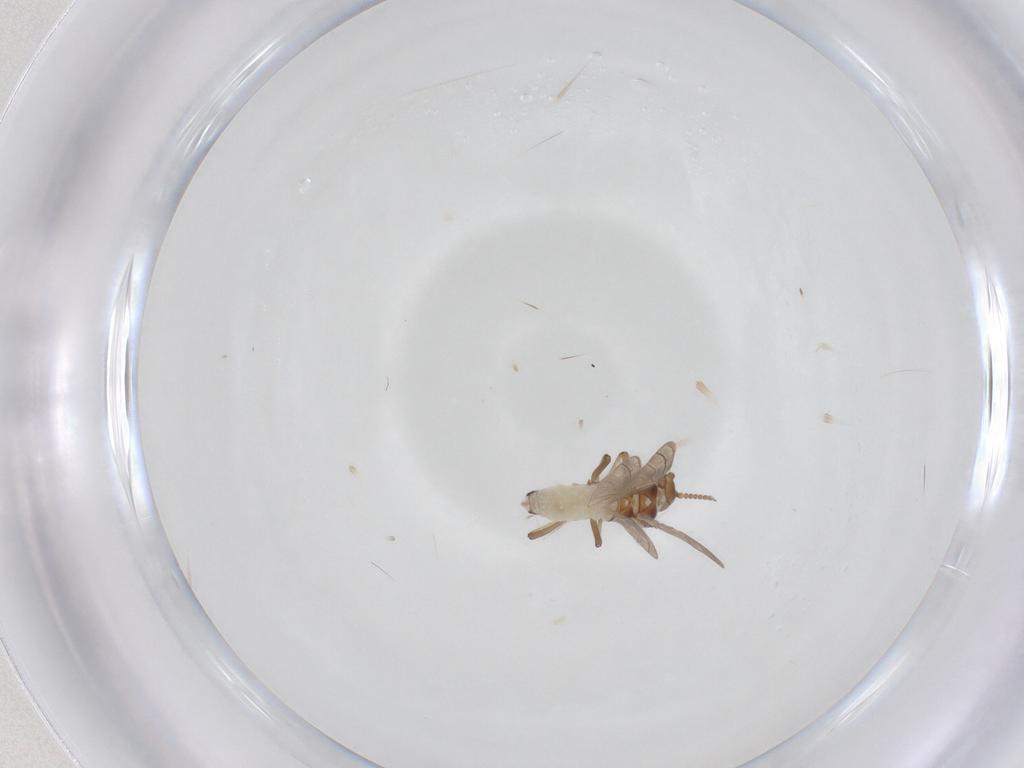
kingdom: Animalia
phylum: Arthropoda
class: Insecta
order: Neuroptera
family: Coniopterygidae
